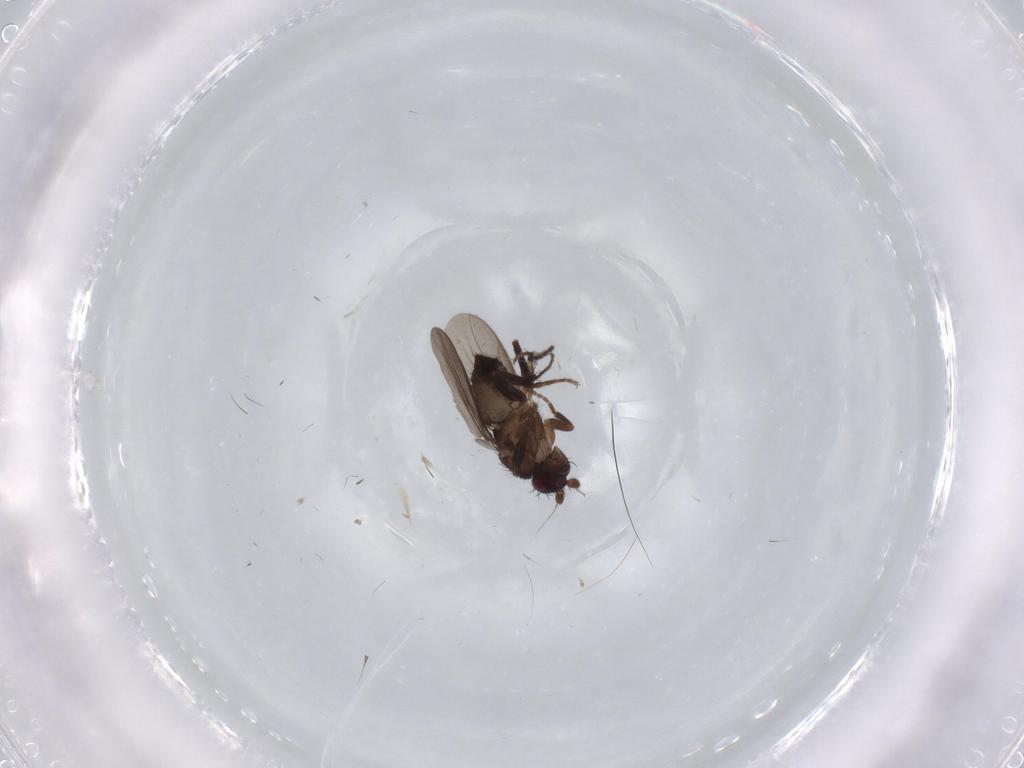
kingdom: Animalia
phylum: Arthropoda
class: Insecta
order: Diptera
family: Sphaeroceridae
